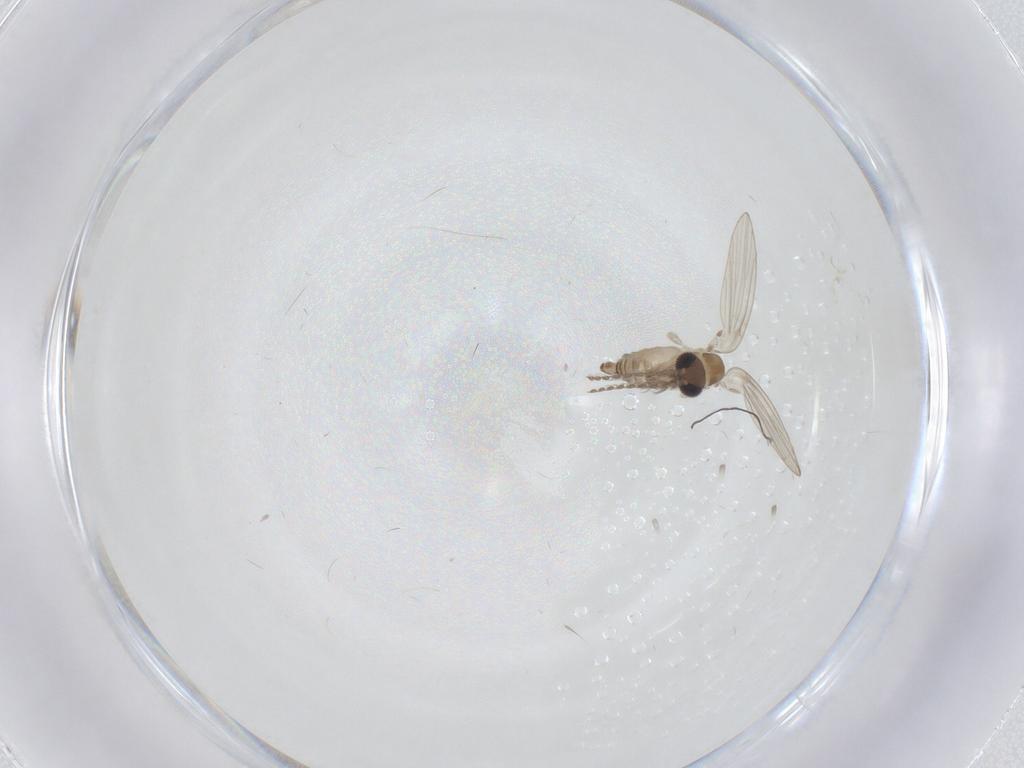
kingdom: Animalia
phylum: Arthropoda
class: Insecta
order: Diptera
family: Psychodidae
